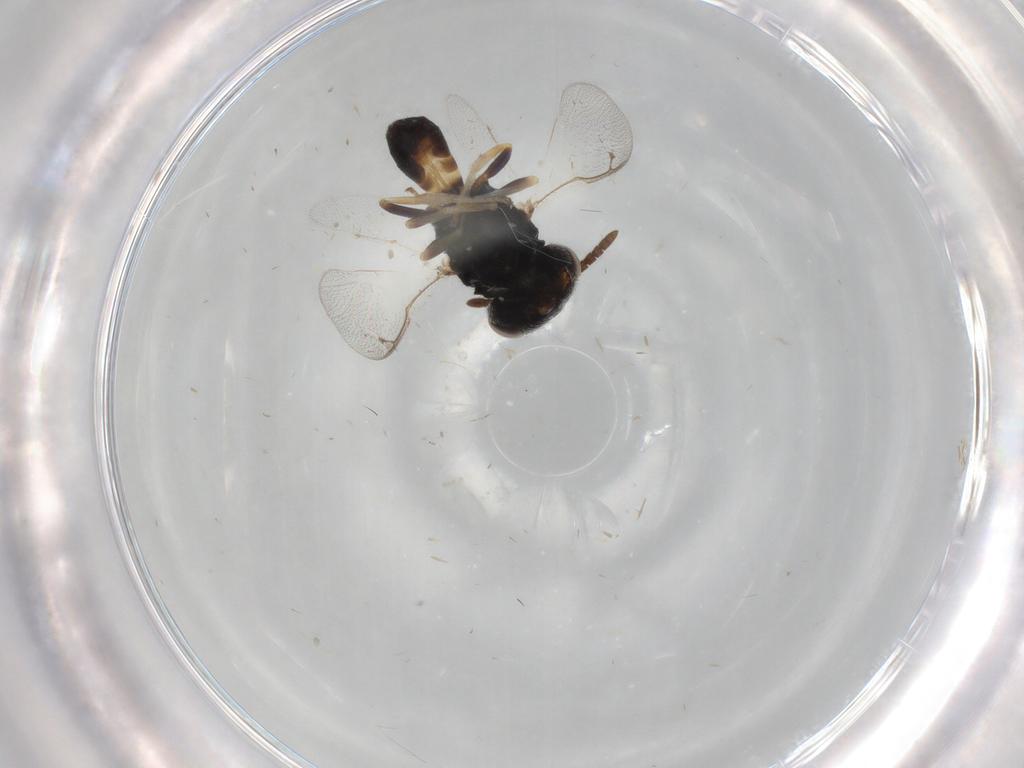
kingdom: Animalia
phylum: Arthropoda
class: Insecta
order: Hymenoptera
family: Pteromalidae
